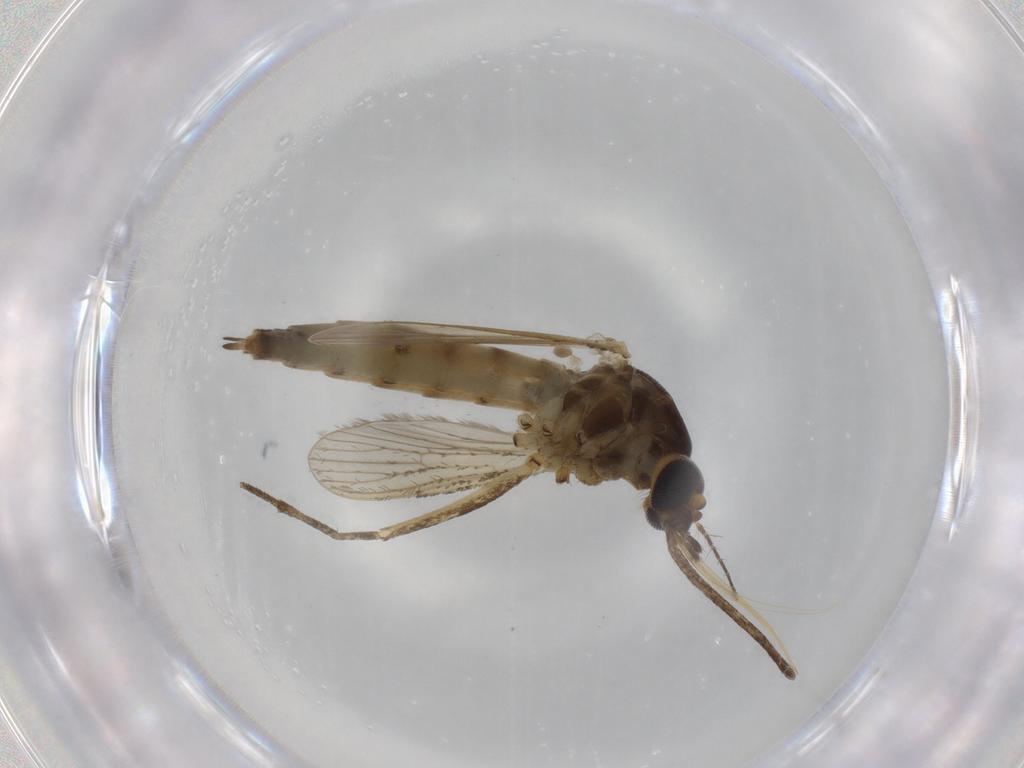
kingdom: Animalia
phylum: Arthropoda
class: Insecta
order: Diptera
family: Chironomidae
